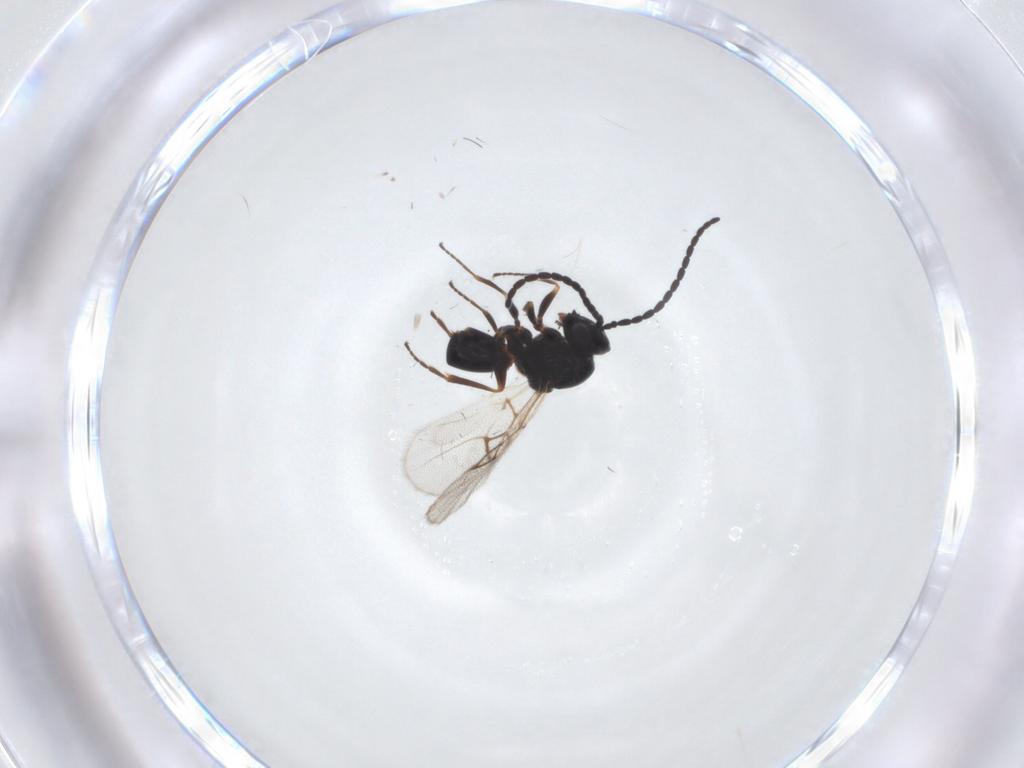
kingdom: Animalia
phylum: Arthropoda
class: Insecta
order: Hymenoptera
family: Figitidae
